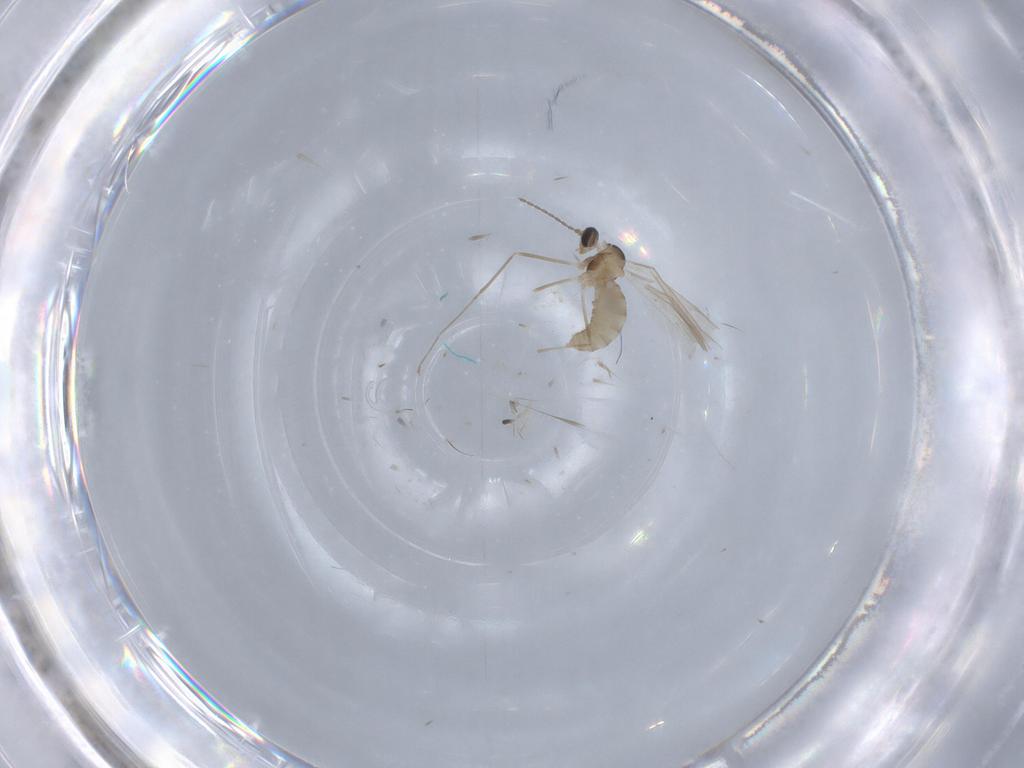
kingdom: Animalia
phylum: Arthropoda
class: Insecta
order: Diptera
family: Cecidomyiidae
